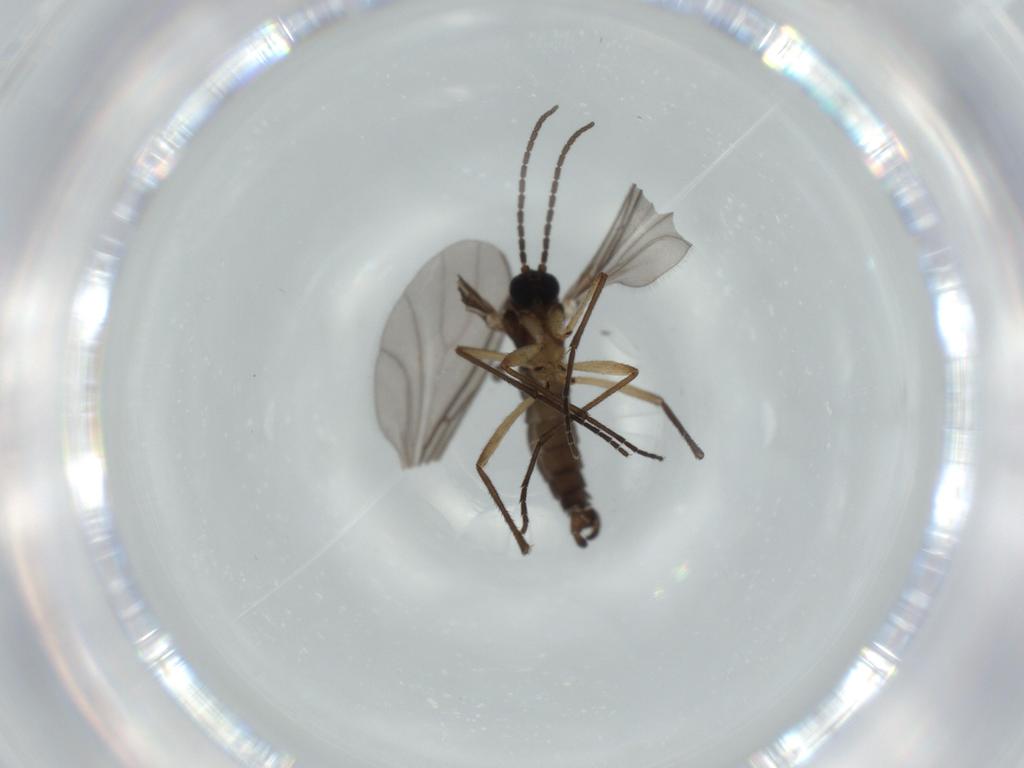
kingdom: Animalia
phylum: Arthropoda
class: Insecta
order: Diptera
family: Sciaridae
